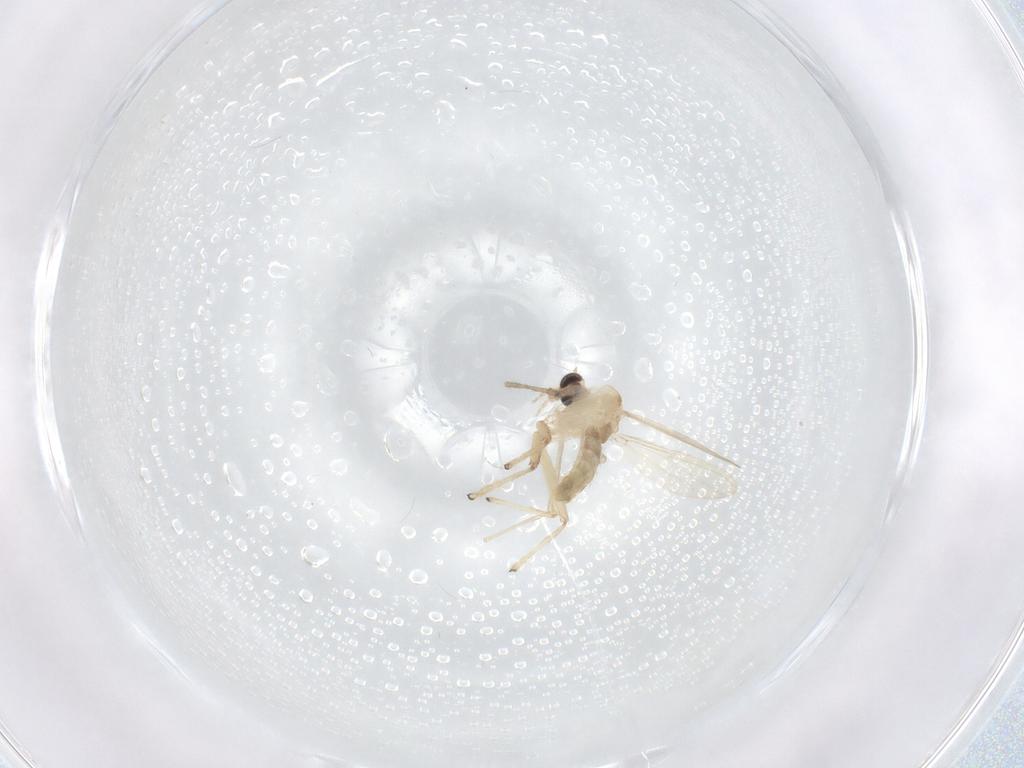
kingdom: Animalia
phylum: Arthropoda
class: Insecta
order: Diptera
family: Chironomidae
